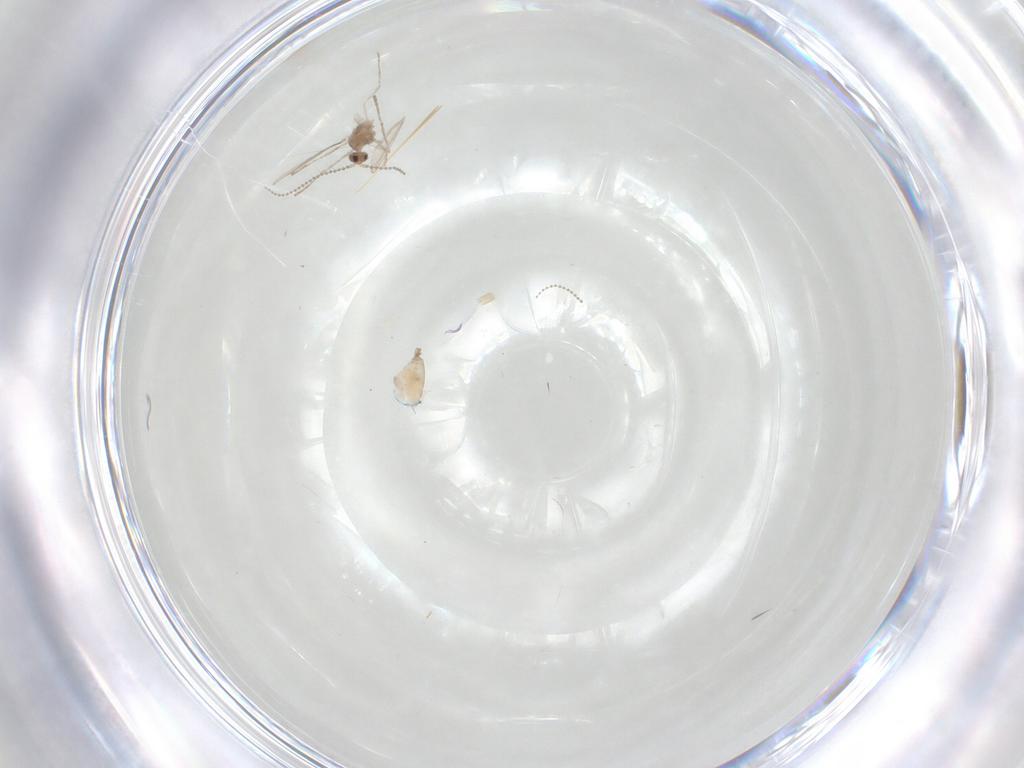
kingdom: Animalia
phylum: Arthropoda
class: Insecta
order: Diptera
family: Cecidomyiidae
